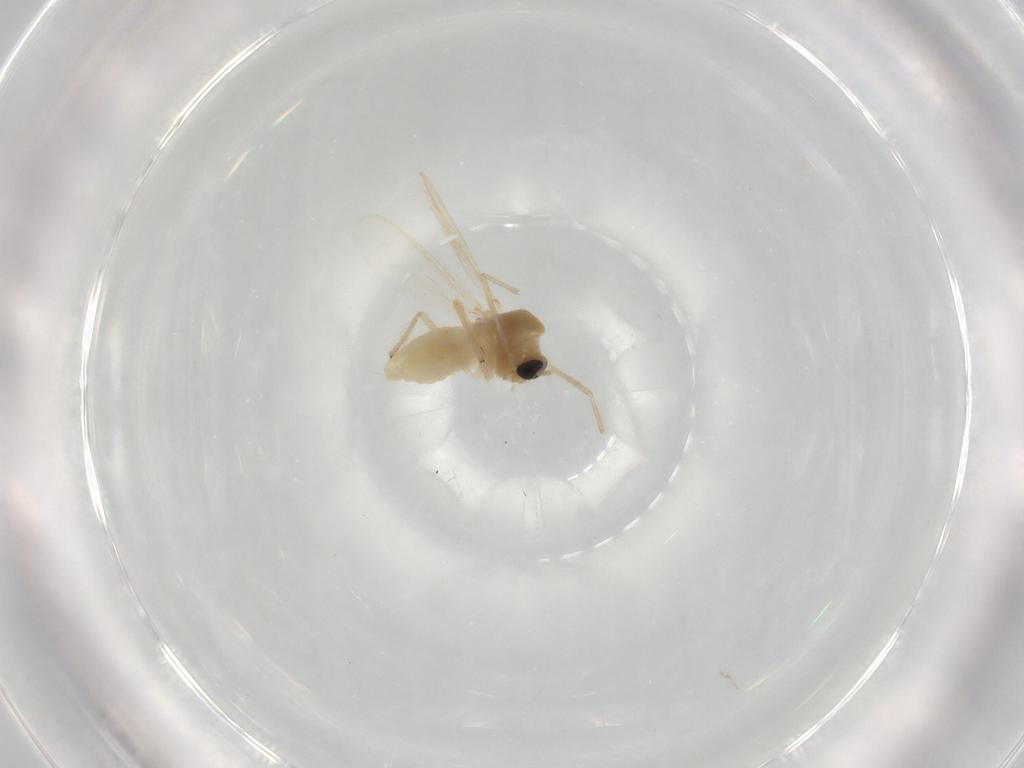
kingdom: Animalia
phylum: Arthropoda
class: Insecta
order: Diptera
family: Chironomidae
